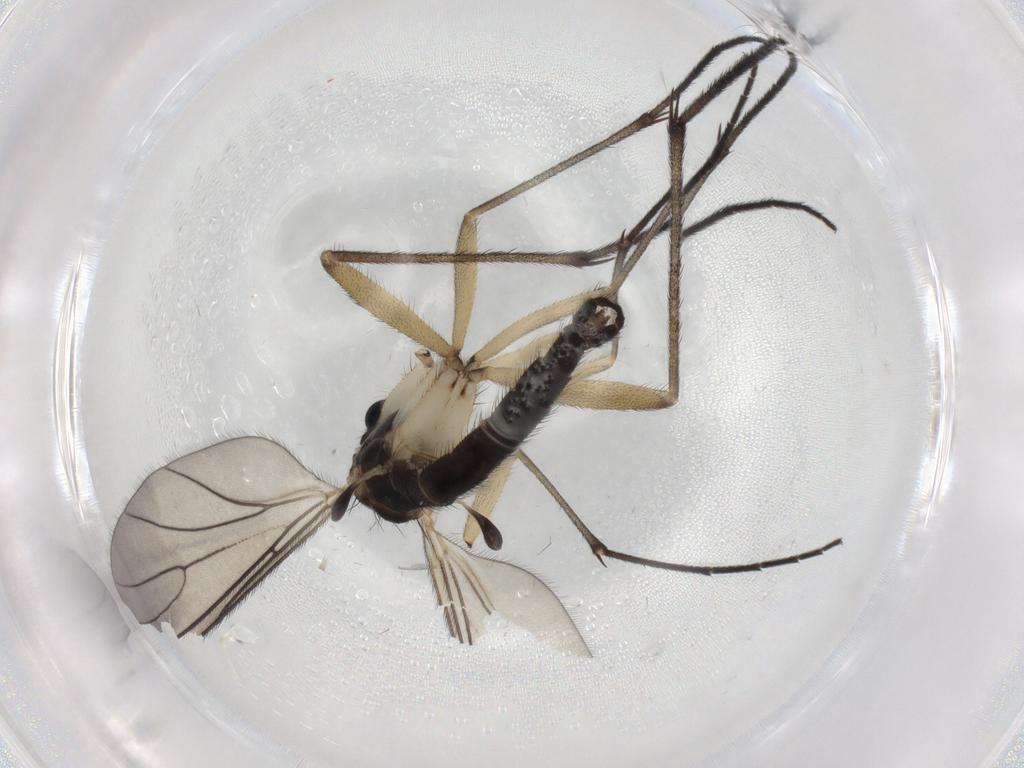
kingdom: Animalia
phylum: Arthropoda
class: Insecta
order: Diptera
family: Sciaridae
